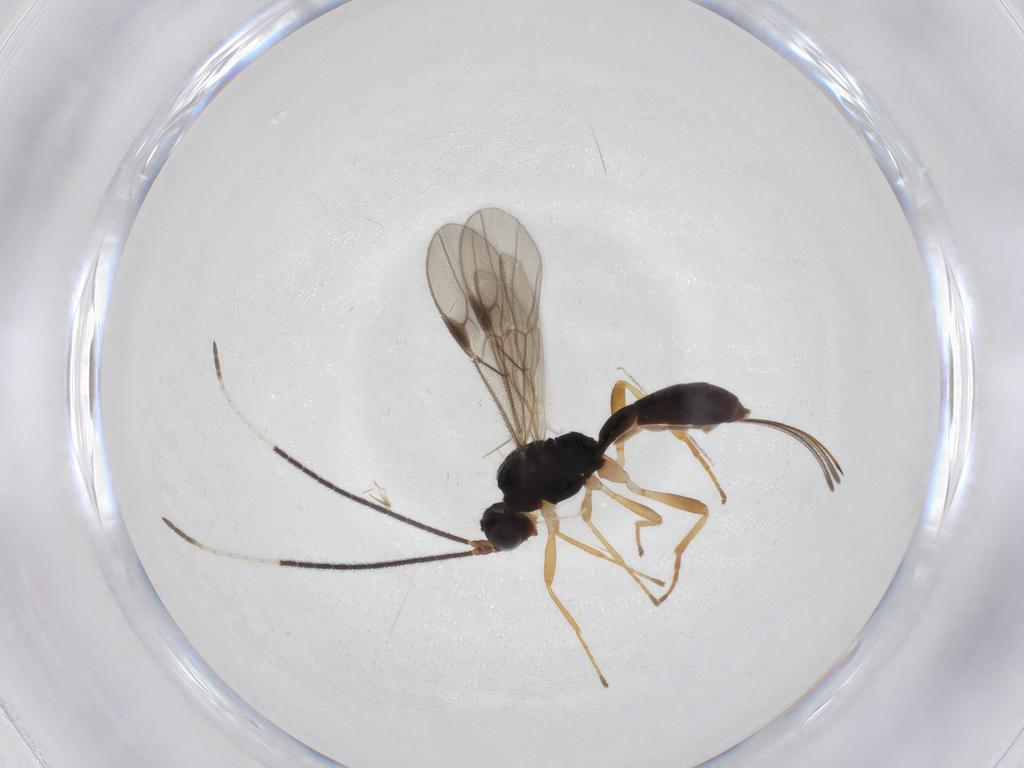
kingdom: Animalia
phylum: Arthropoda
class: Insecta
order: Hymenoptera
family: Braconidae
